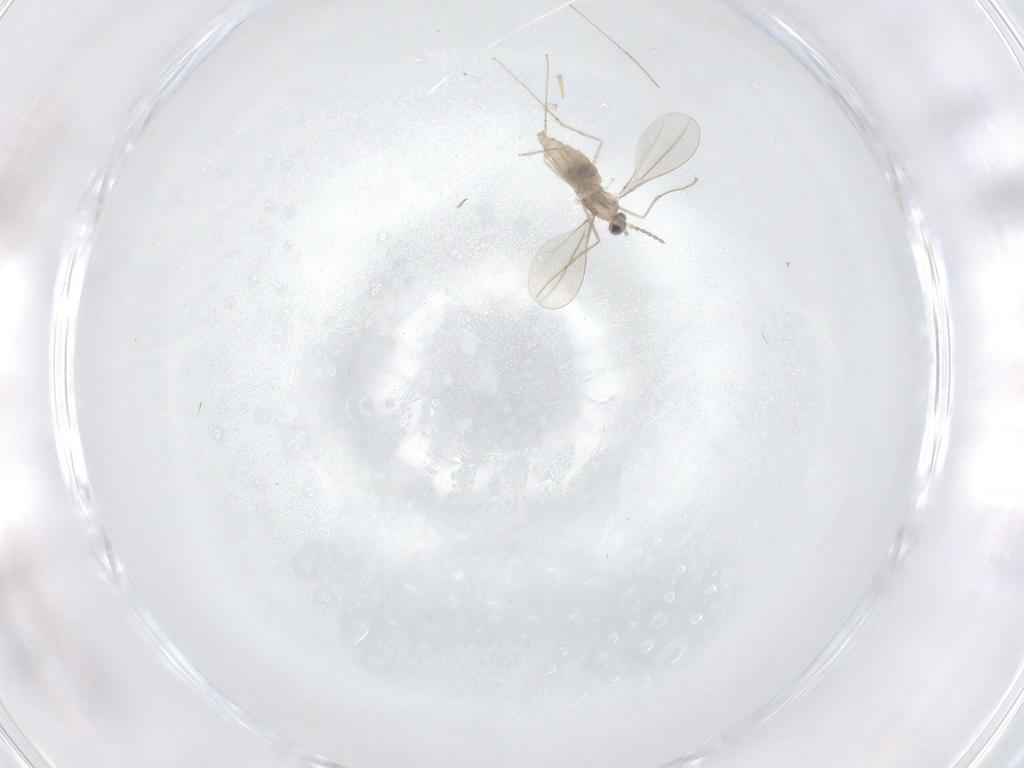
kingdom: Animalia
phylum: Arthropoda
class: Insecta
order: Diptera
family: Cecidomyiidae
